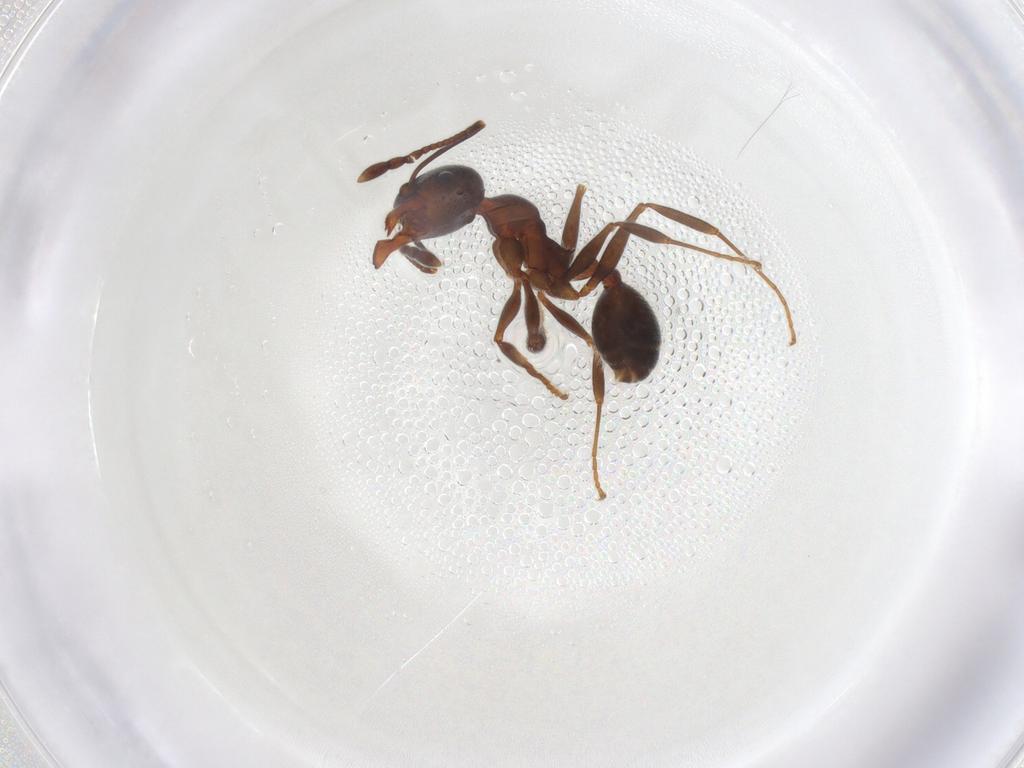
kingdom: Animalia
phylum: Arthropoda
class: Insecta
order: Hymenoptera
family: Formicidae
